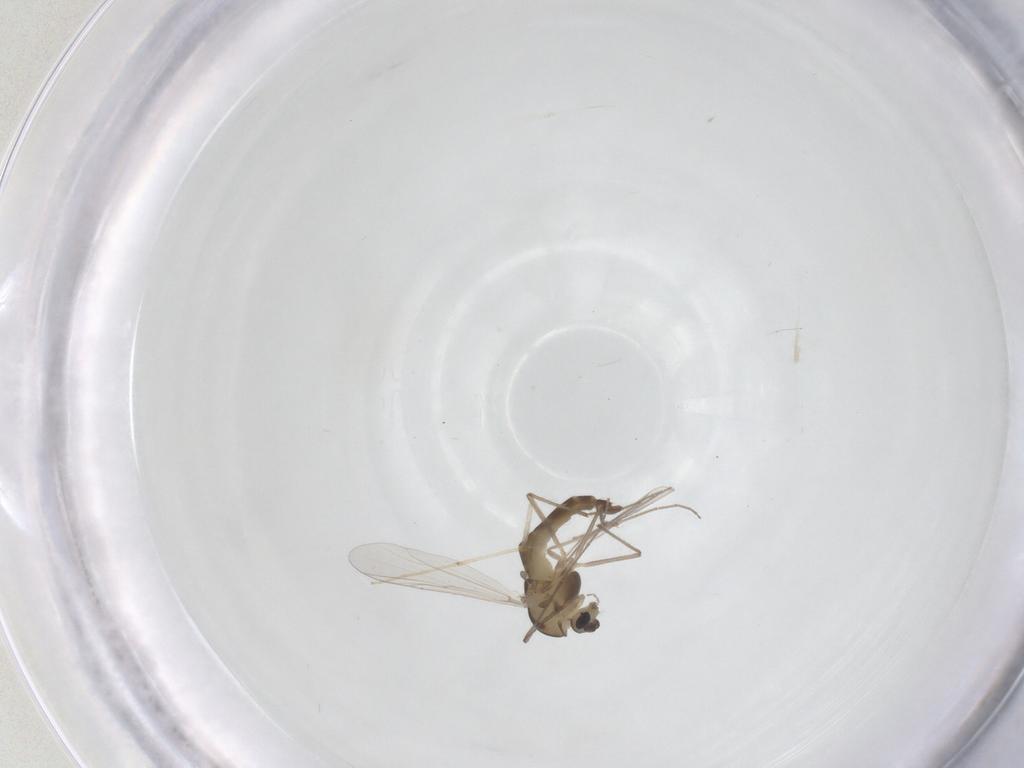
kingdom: Animalia
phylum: Arthropoda
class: Insecta
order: Diptera
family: Chironomidae
